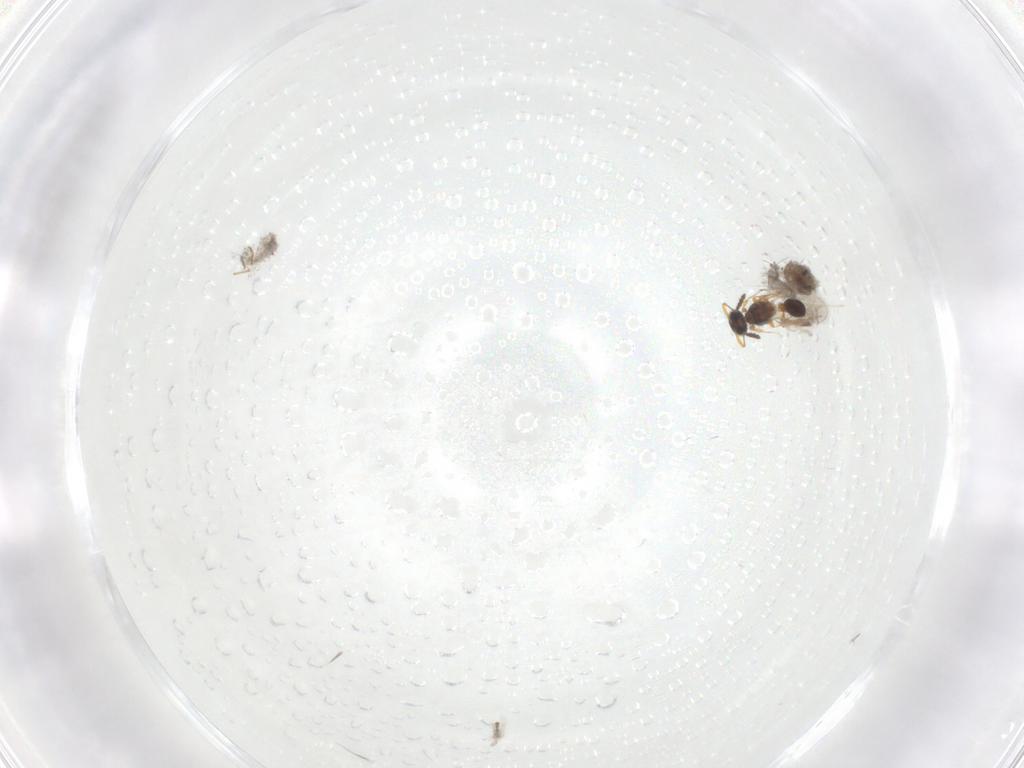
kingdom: Animalia
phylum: Arthropoda
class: Insecta
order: Hymenoptera
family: Platygastridae
